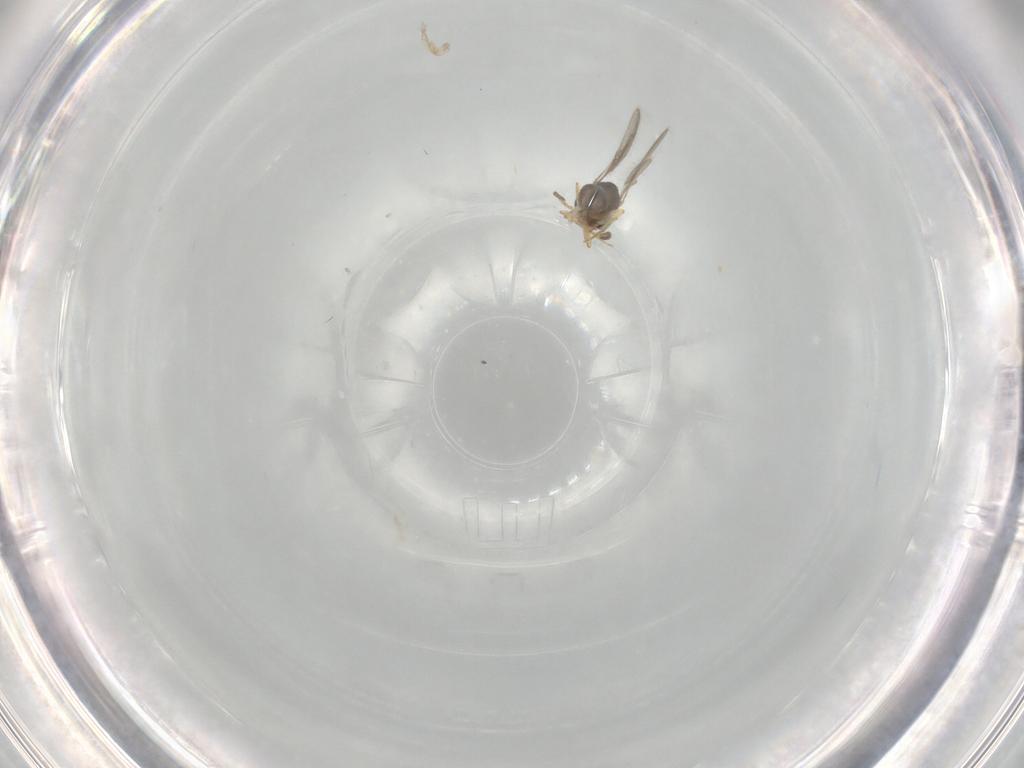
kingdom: Animalia
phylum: Arthropoda
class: Insecta
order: Hymenoptera
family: Scelionidae
